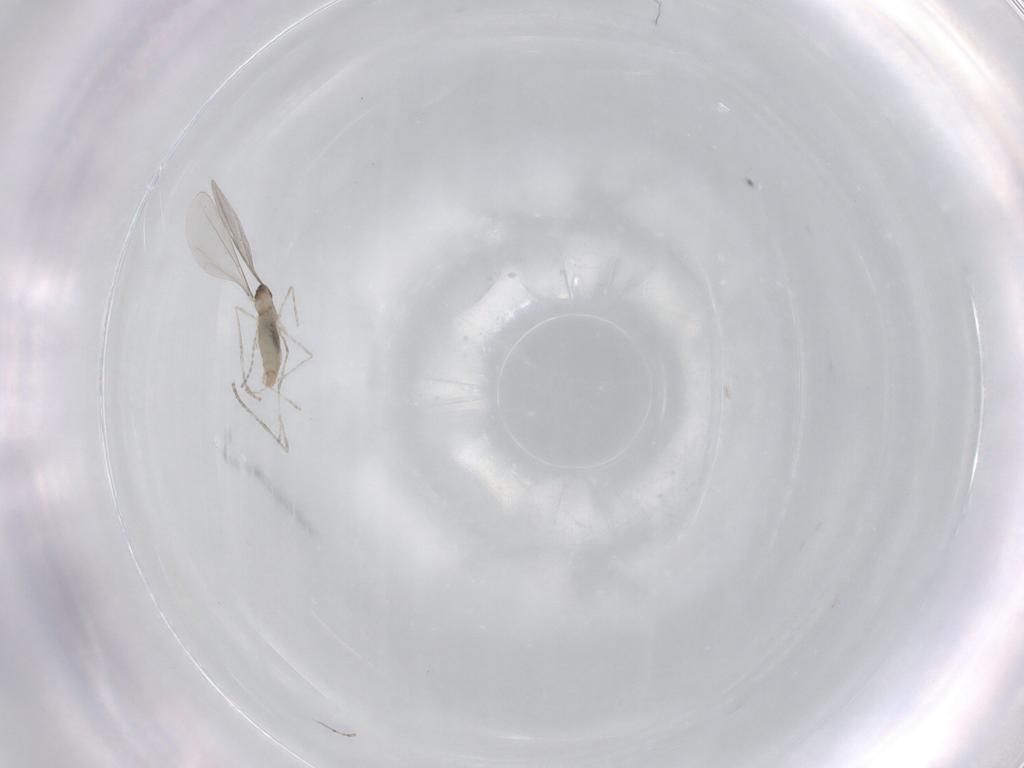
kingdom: Animalia
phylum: Arthropoda
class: Insecta
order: Diptera
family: Cecidomyiidae
